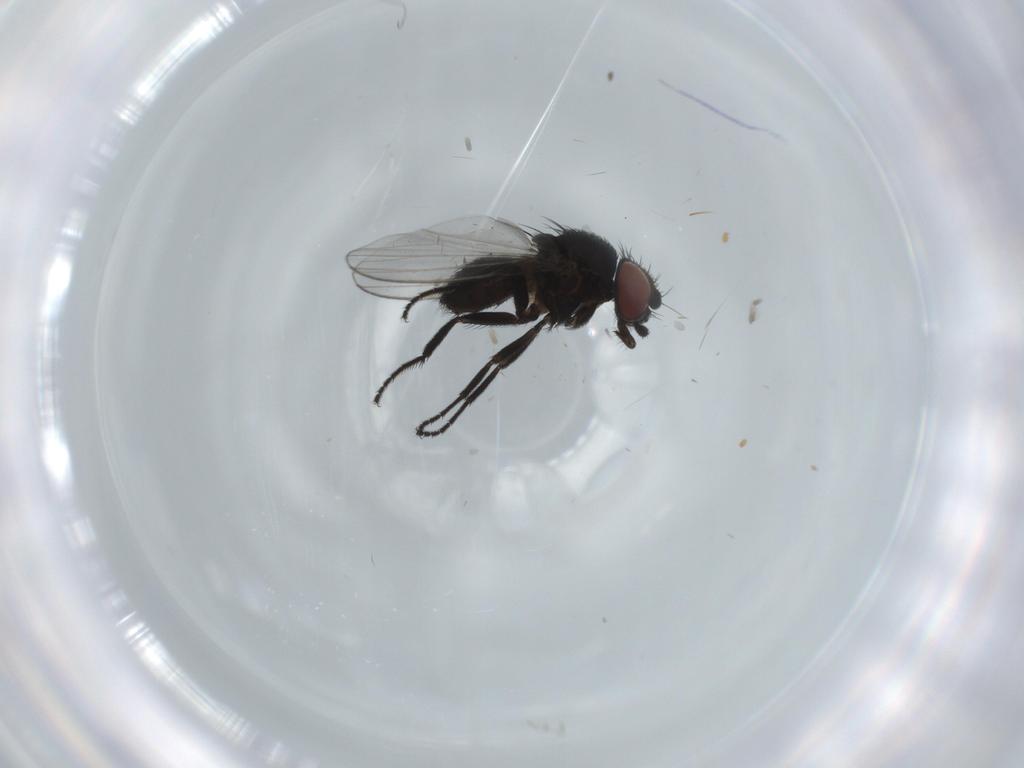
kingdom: Animalia
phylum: Arthropoda
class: Insecta
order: Diptera
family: Milichiidae
